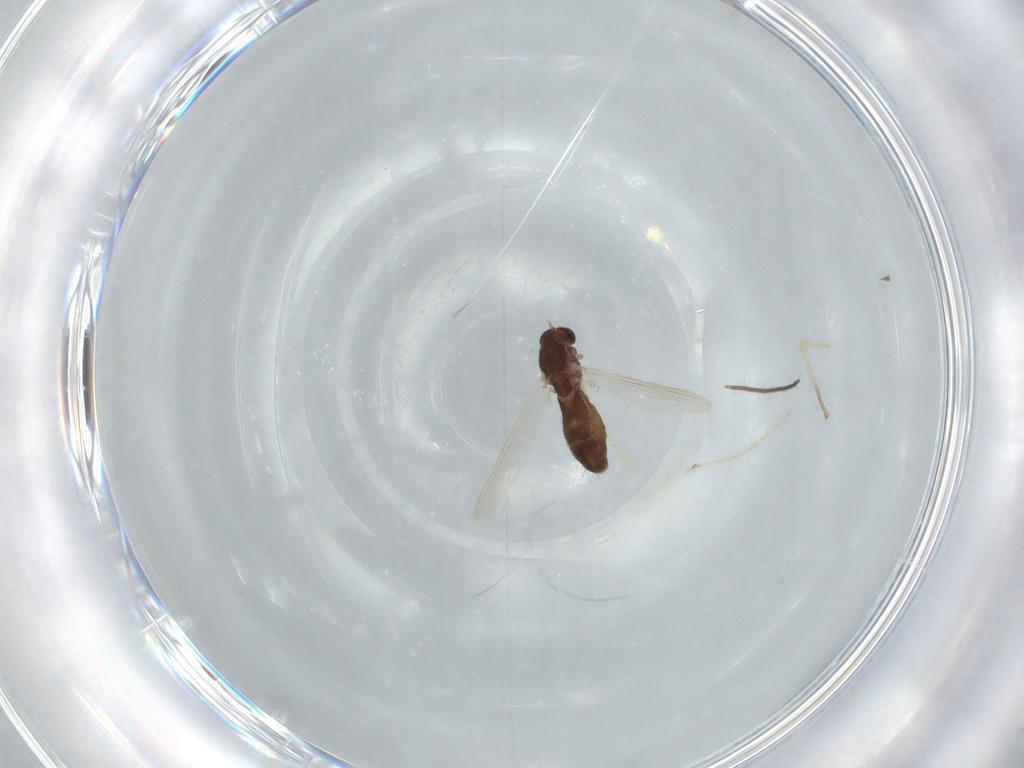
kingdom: Animalia
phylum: Arthropoda
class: Insecta
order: Diptera
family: Chironomidae
